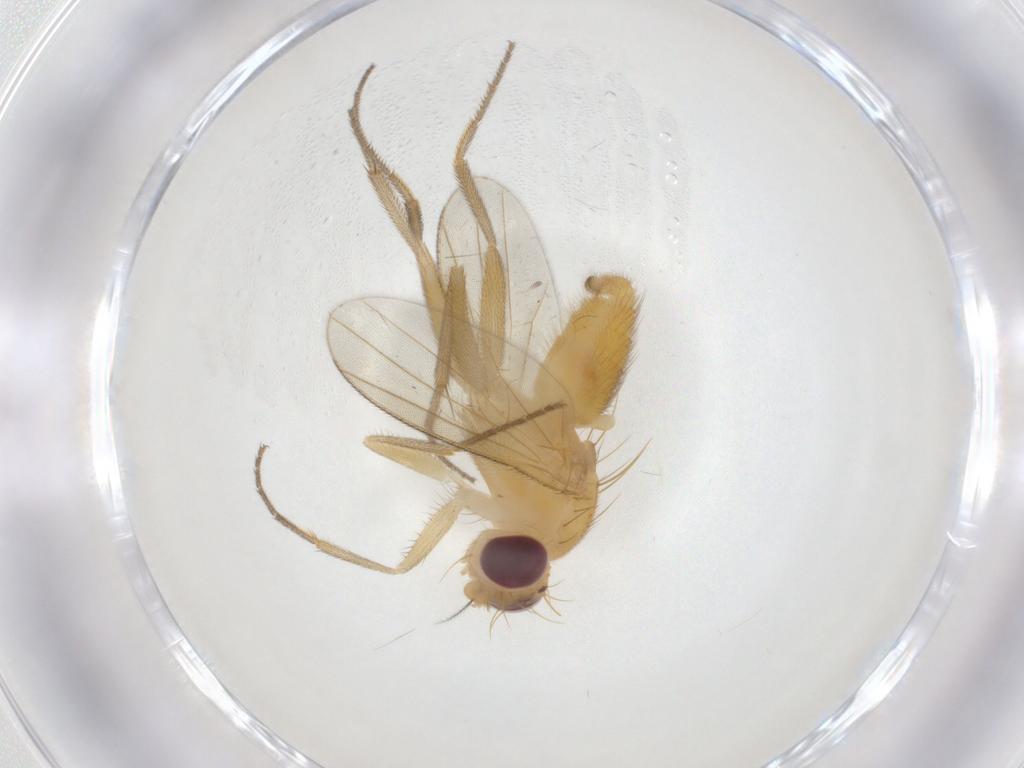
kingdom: Animalia
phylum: Arthropoda
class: Insecta
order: Diptera
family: Clusiidae
